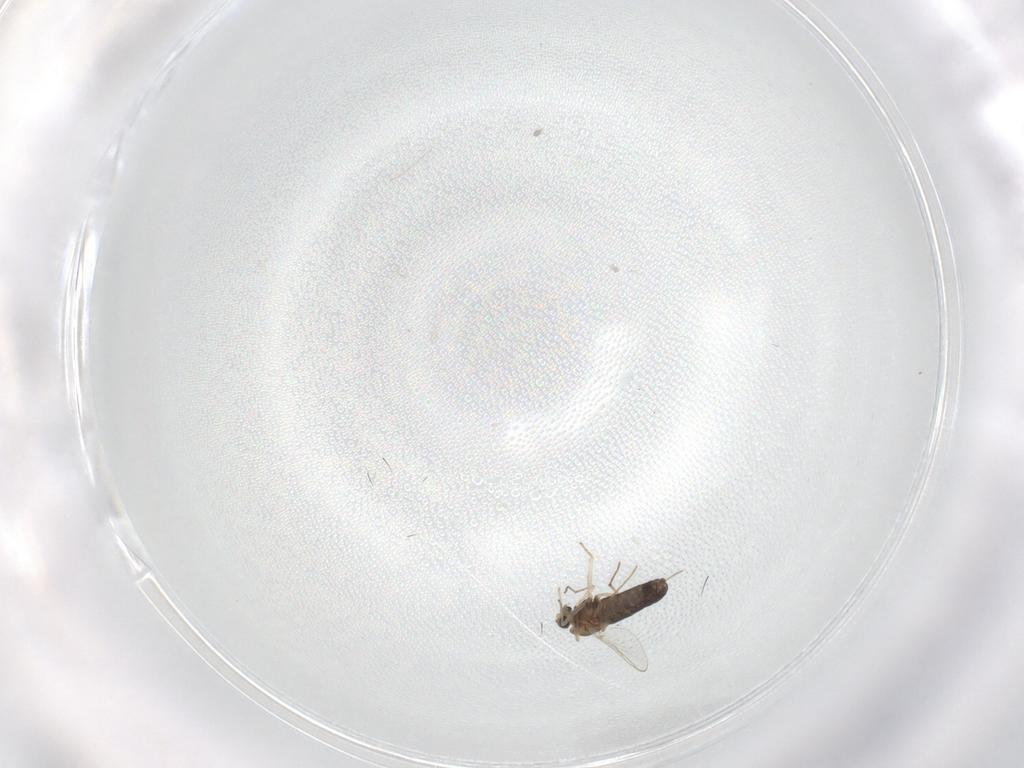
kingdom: Animalia
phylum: Arthropoda
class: Insecta
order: Diptera
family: Chironomidae
